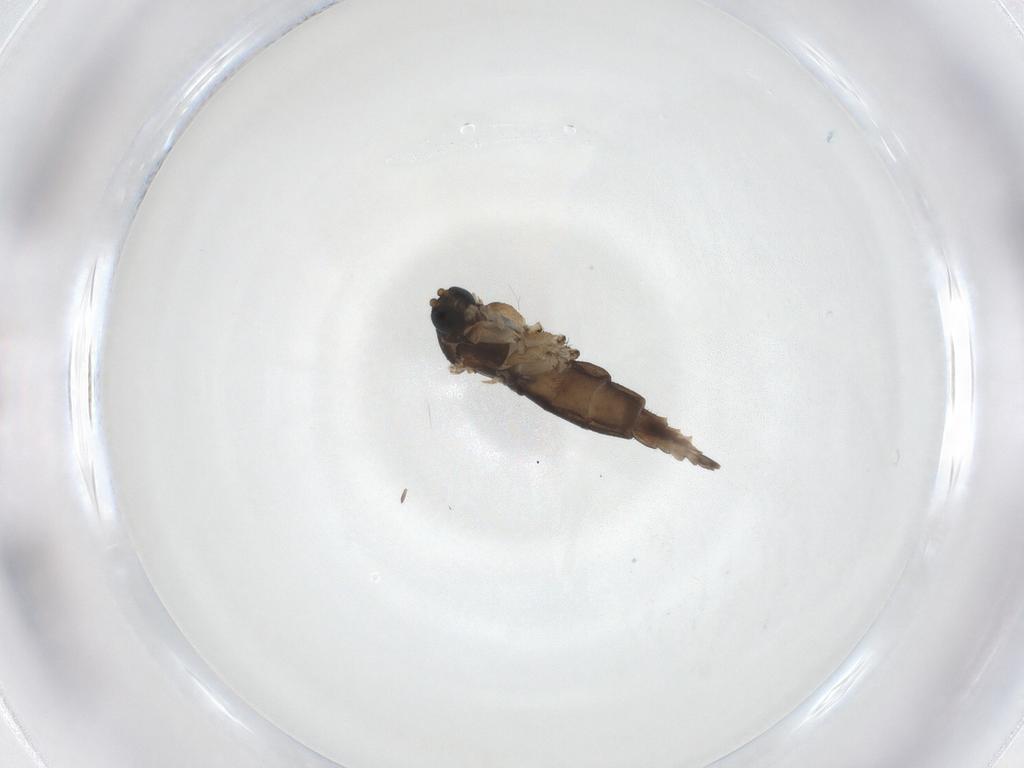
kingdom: Animalia
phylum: Arthropoda
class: Insecta
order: Diptera
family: Sciaridae
